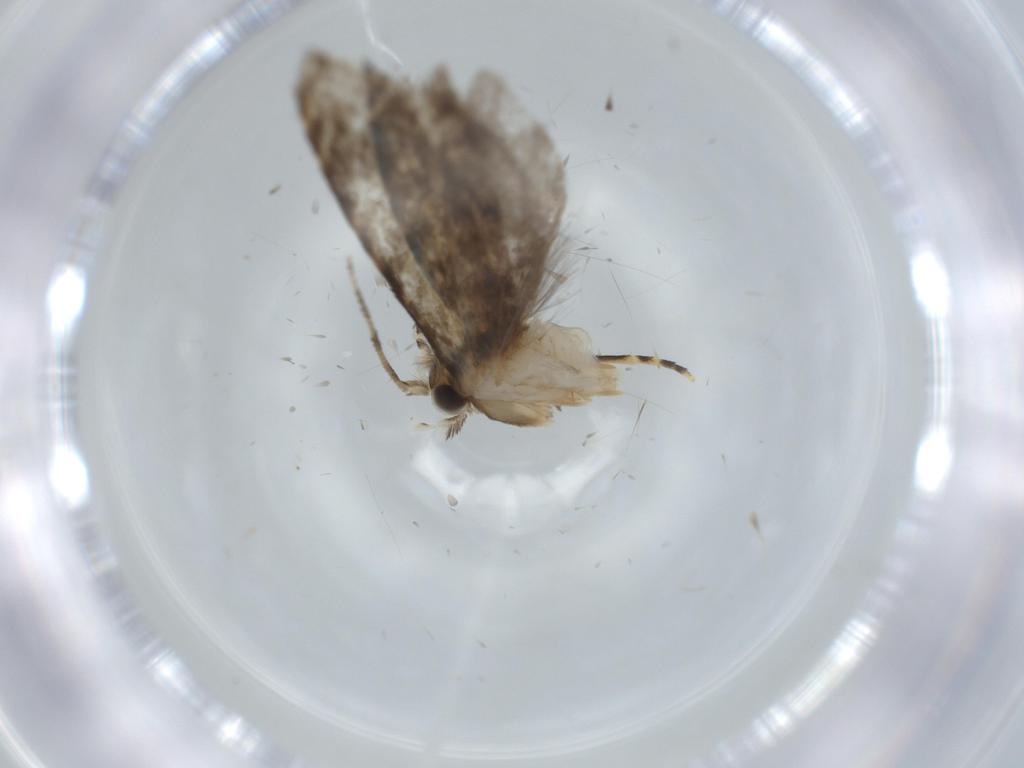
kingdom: Animalia
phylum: Arthropoda
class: Insecta
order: Lepidoptera
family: Tineidae
